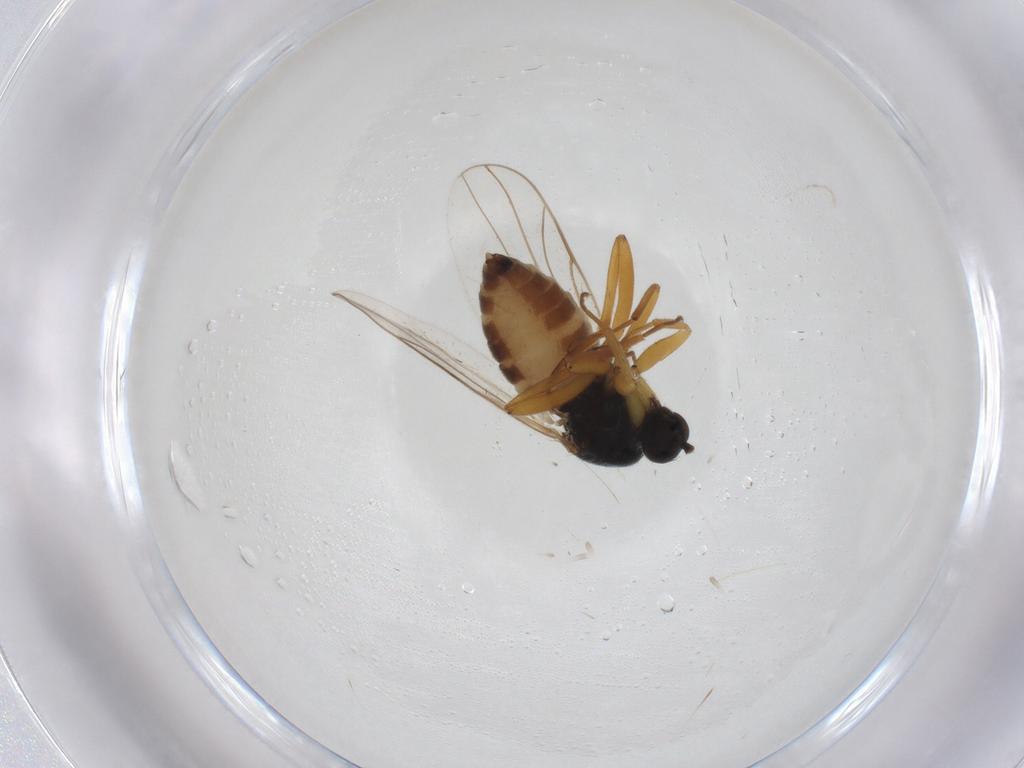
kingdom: Animalia
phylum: Arthropoda
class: Insecta
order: Diptera
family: Hybotidae
